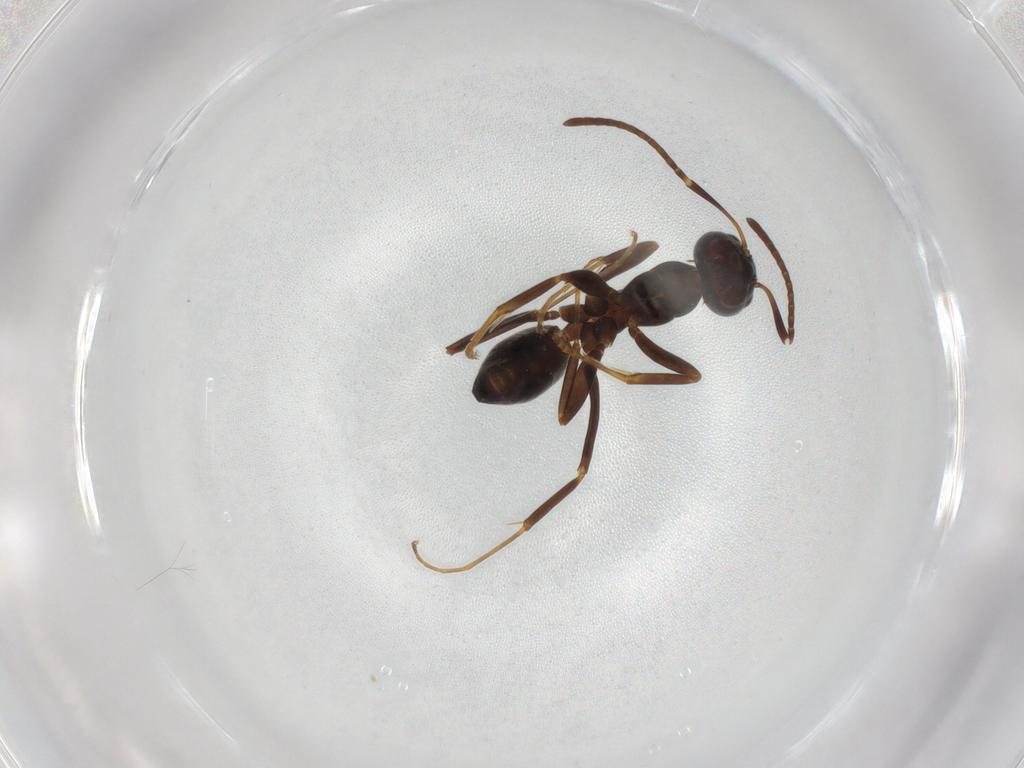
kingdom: Animalia
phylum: Arthropoda
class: Insecta
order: Hymenoptera
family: Formicidae
